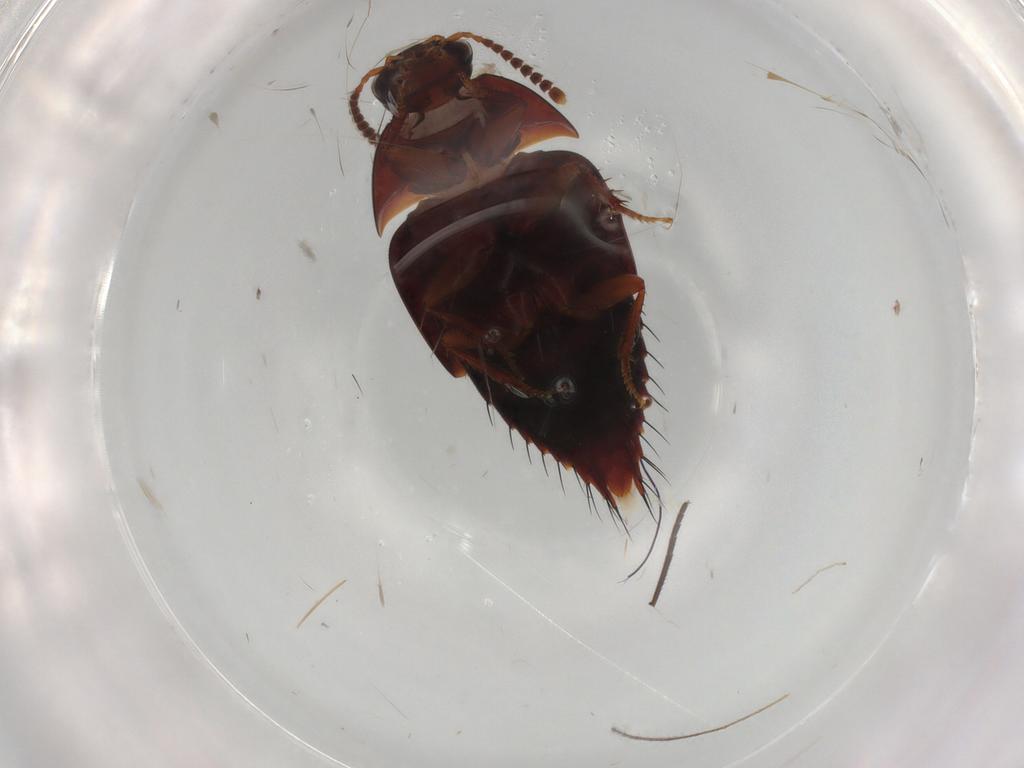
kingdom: Animalia
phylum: Arthropoda
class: Insecta
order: Coleoptera
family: Staphylinidae
